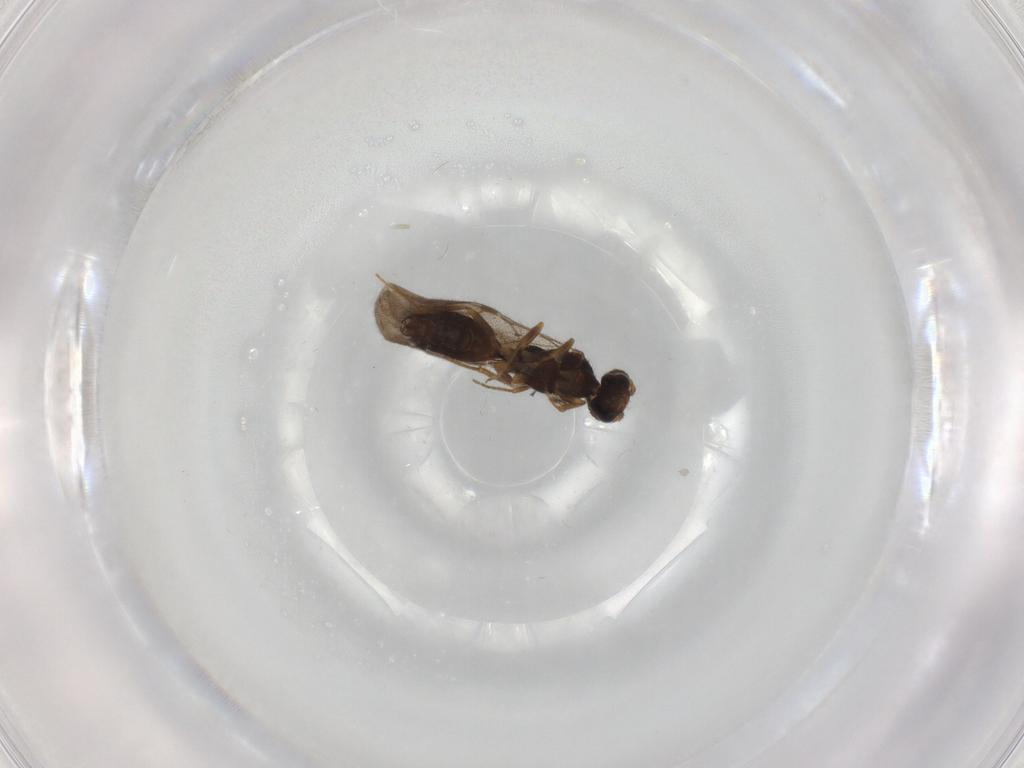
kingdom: Animalia
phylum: Arthropoda
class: Insecta
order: Hymenoptera
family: Bethylidae
